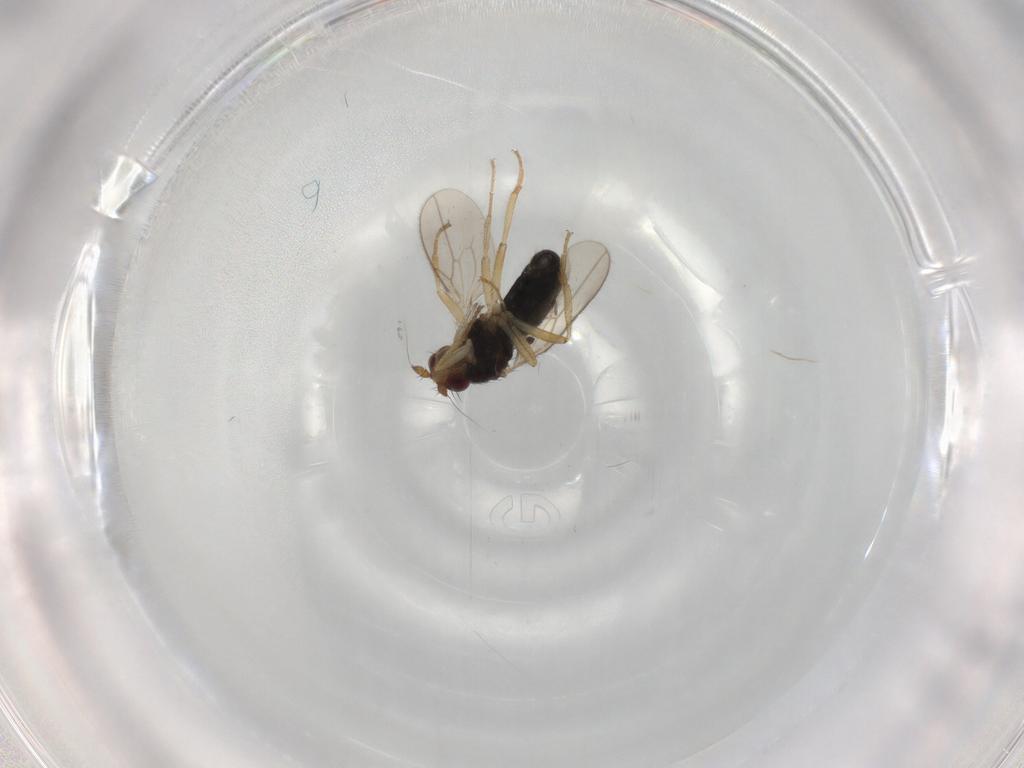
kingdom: Animalia
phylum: Arthropoda
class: Insecta
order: Diptera
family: Sphaeroceridae
